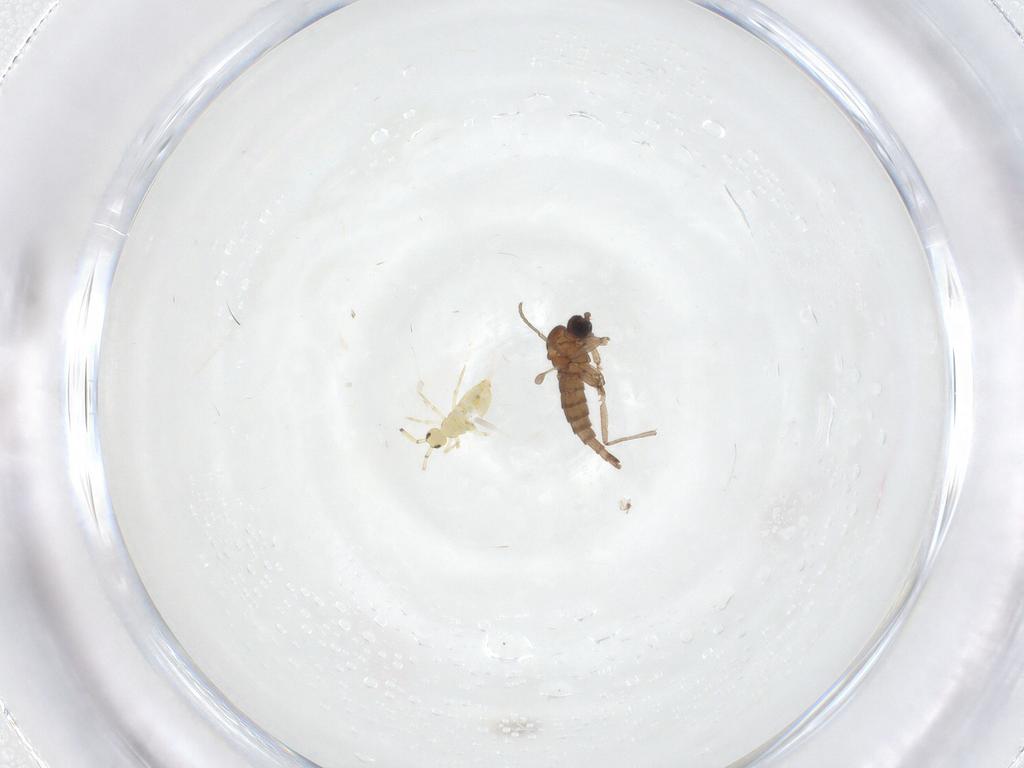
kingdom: Animalia
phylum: Arthropoda
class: Insecta
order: Diptera
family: Sciaridae
